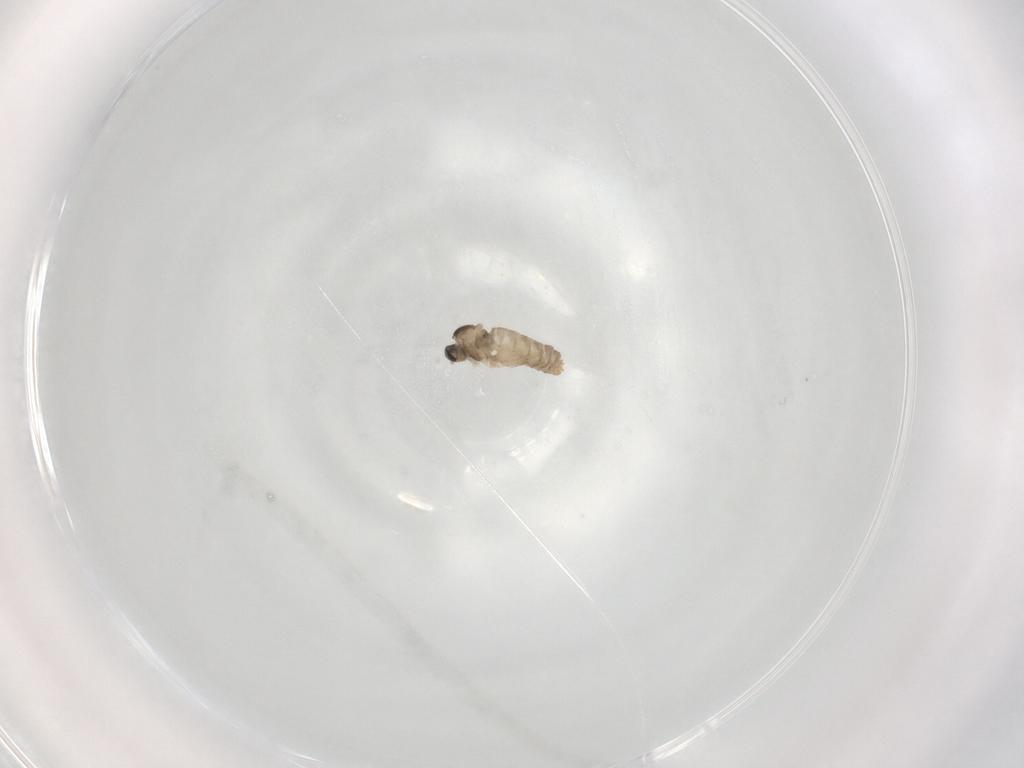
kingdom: Animalia
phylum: Arthropoda
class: Insecta
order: Diptera
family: Cecidomyiidae
